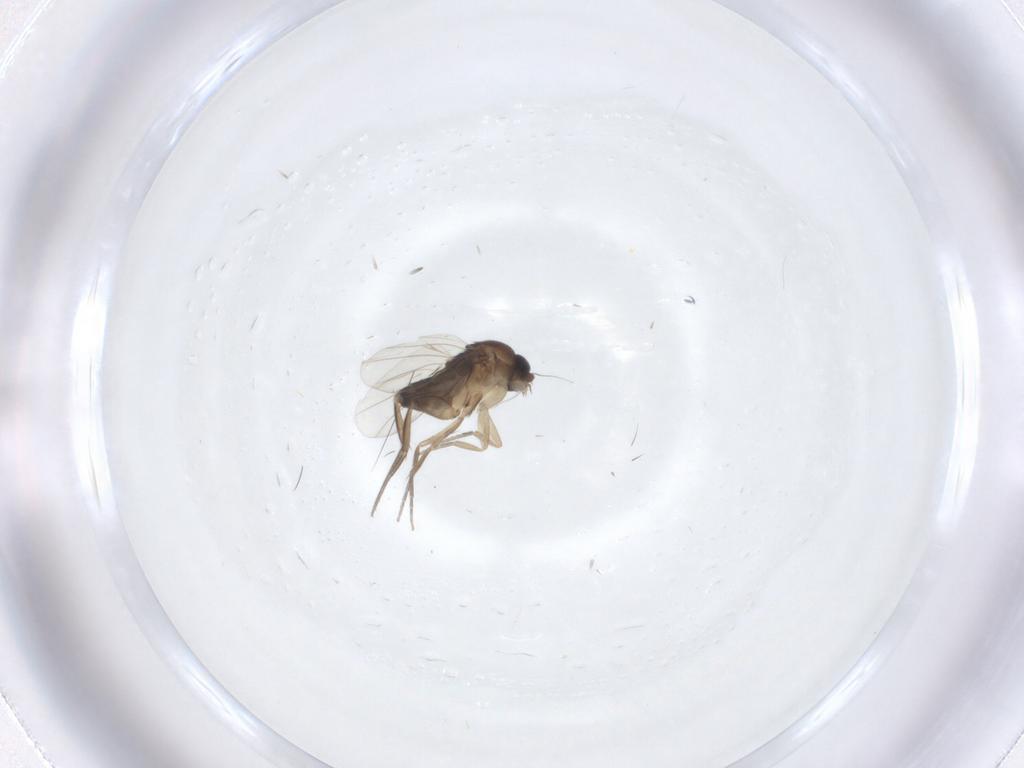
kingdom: Animalia
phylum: Arthropoda
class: Insecta
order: Diptera
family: Phoridae
